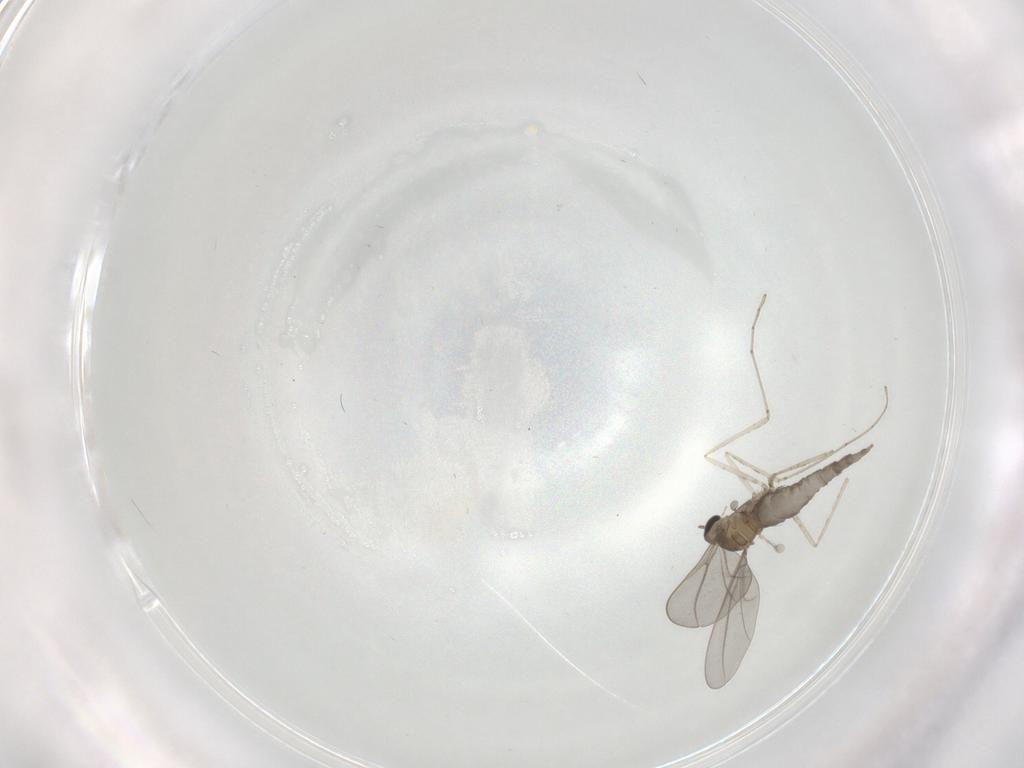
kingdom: Animalia
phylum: Arthropoda
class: Insecta
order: Diptera
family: Cecidomyiidae
